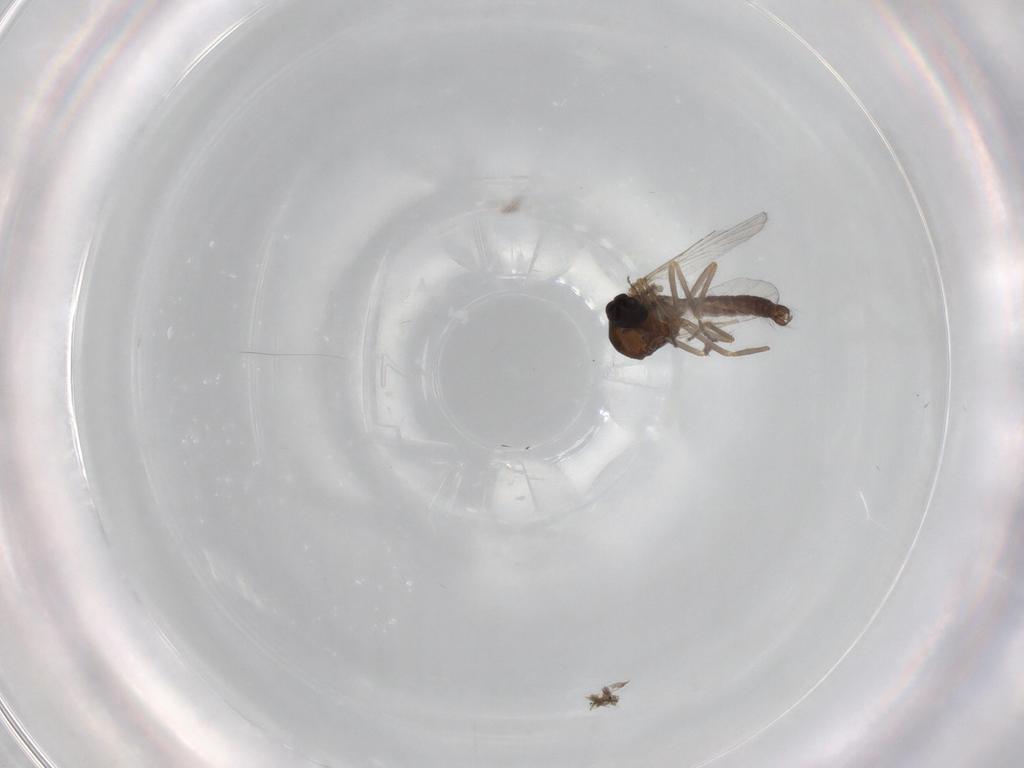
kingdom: Animalia
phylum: Arthropoda
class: Insecta
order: Diptera
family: Ceratopogonidae
